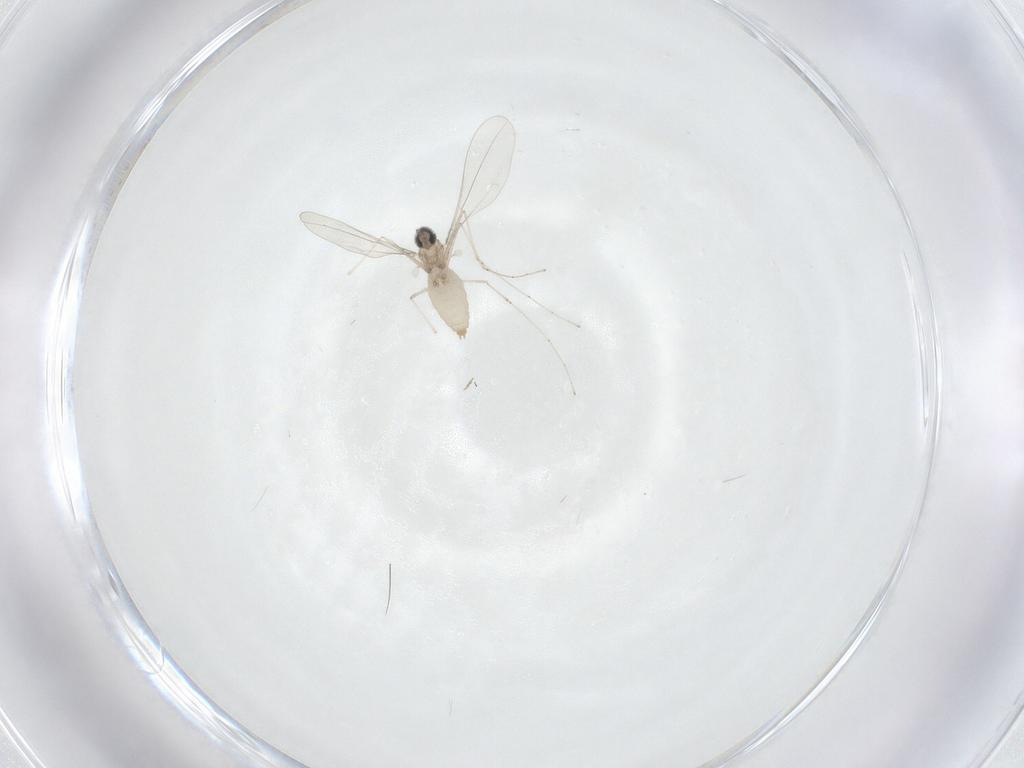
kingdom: Animalia
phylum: Arthropoda
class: Insecta
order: Diptera
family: Cecidomyiidae
